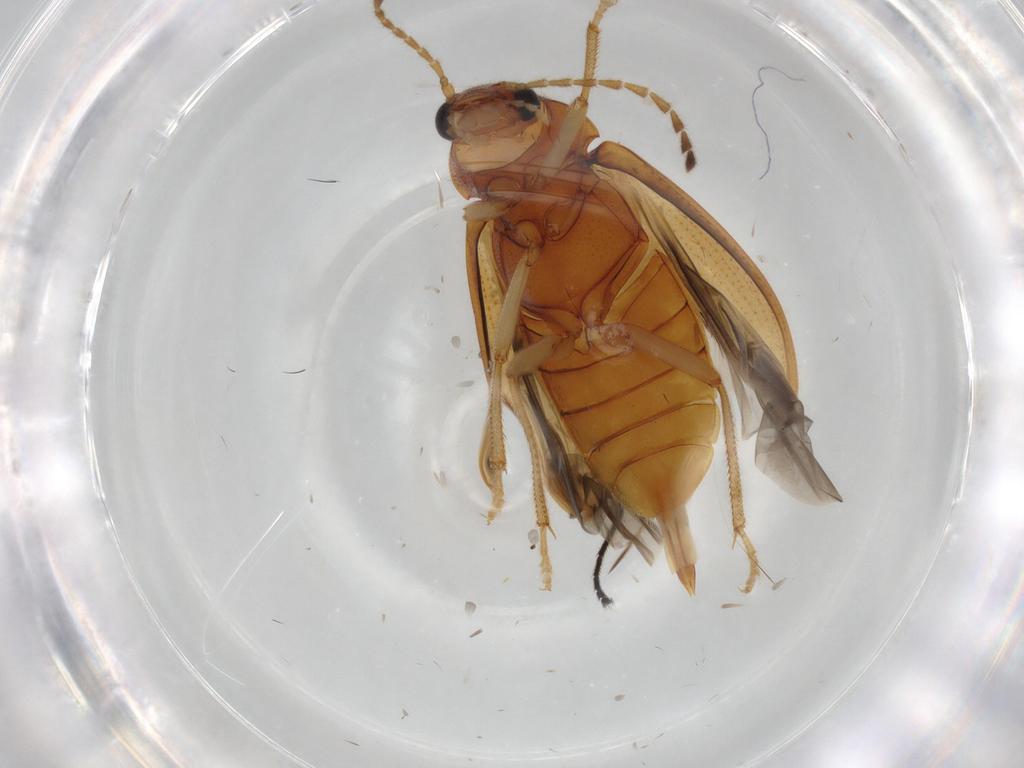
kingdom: Animalia
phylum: Arthropoda
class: Insecta
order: Coleoptera
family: Ptilodactylidae
